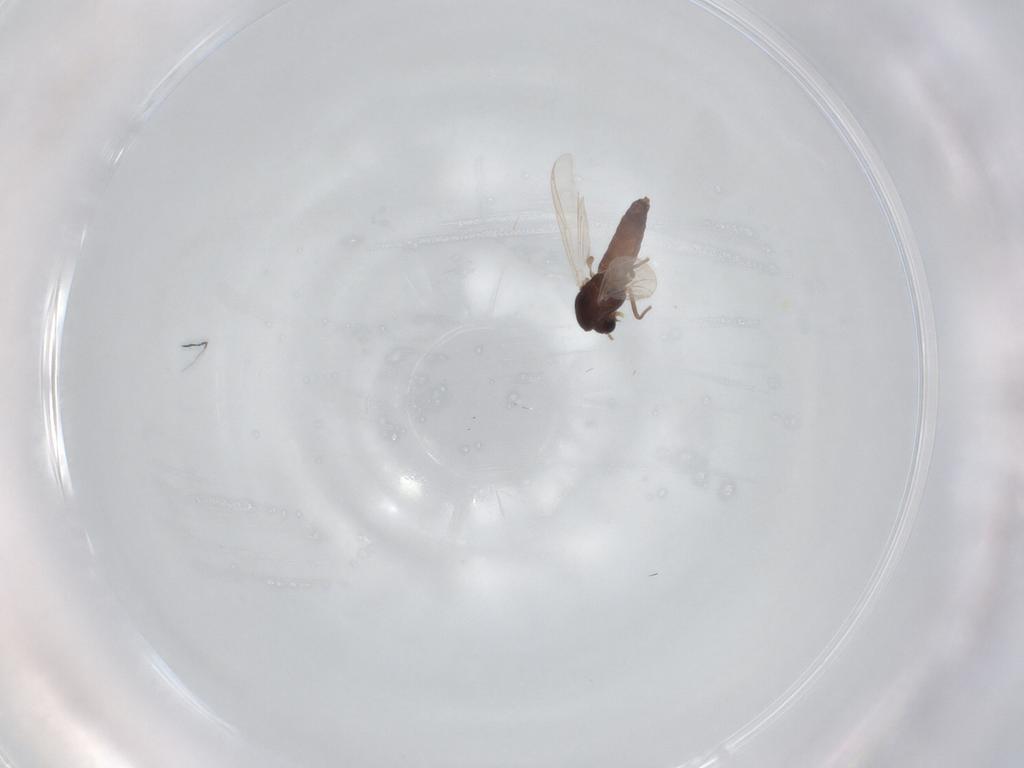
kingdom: Animalia
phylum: Arthropoda
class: Insecta
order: Diptera
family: Chironomidae
